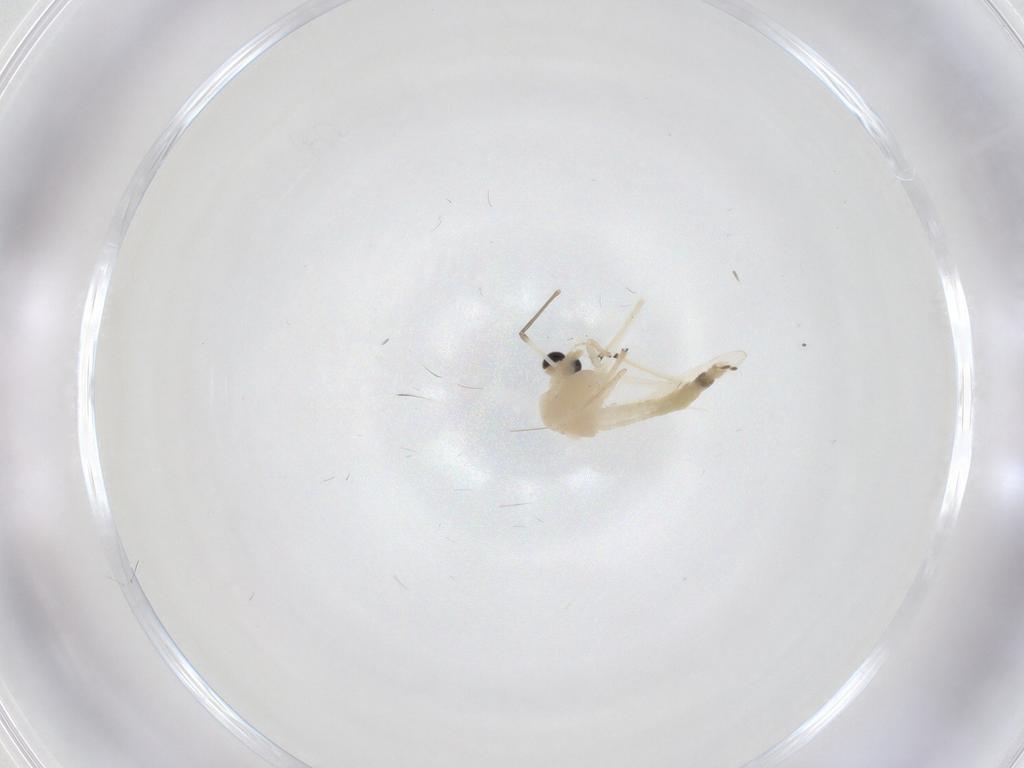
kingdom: Animalia
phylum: Arthropoda
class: Insecta
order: Diptera
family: Chironomidae
